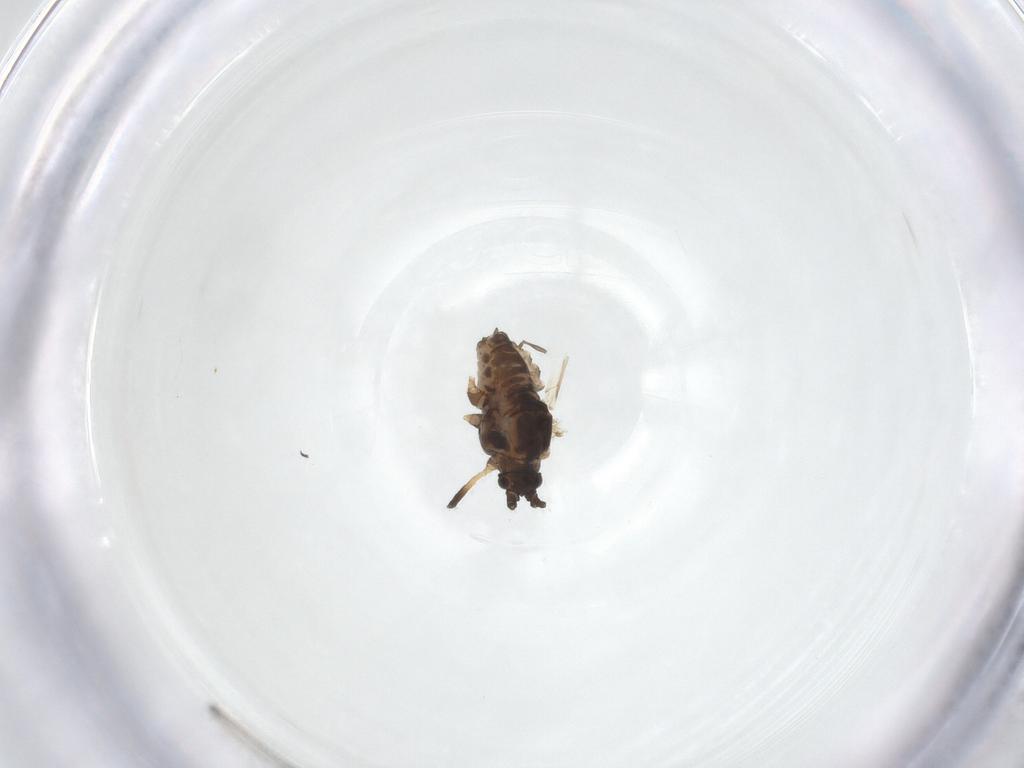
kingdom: Animalia
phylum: Arthropoda
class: Insecta
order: Hemiptera
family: Aphididae
